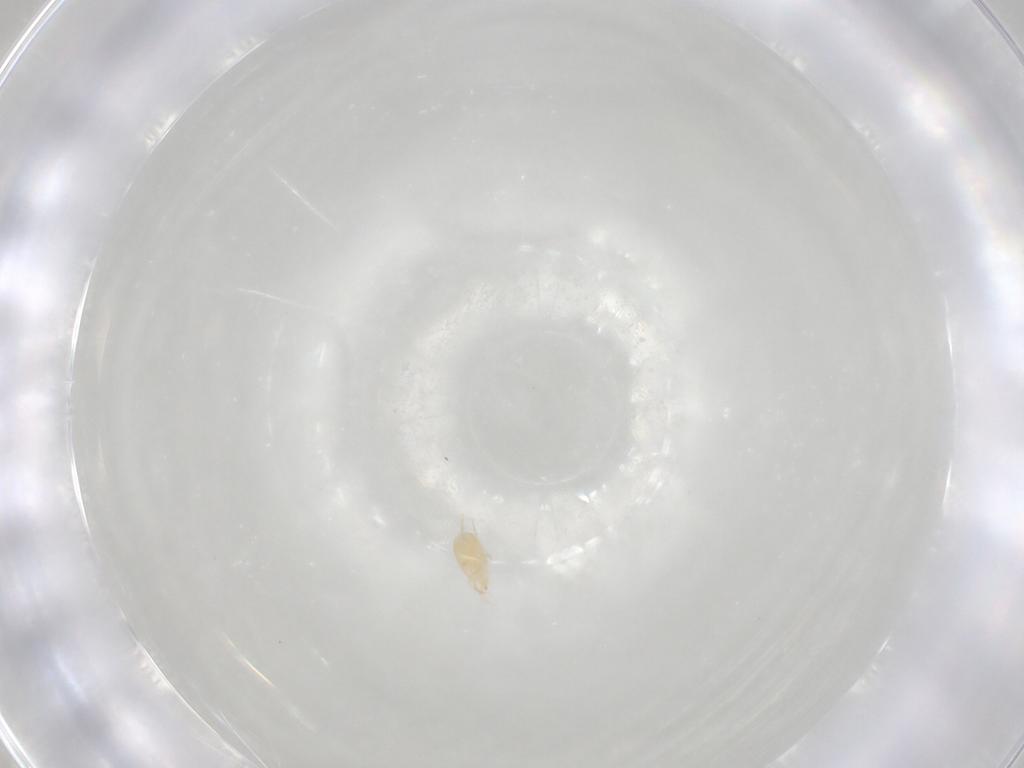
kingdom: Animalia
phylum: Arthropoda
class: Arachnida
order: Mesostigmata
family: Phytoseiidae
